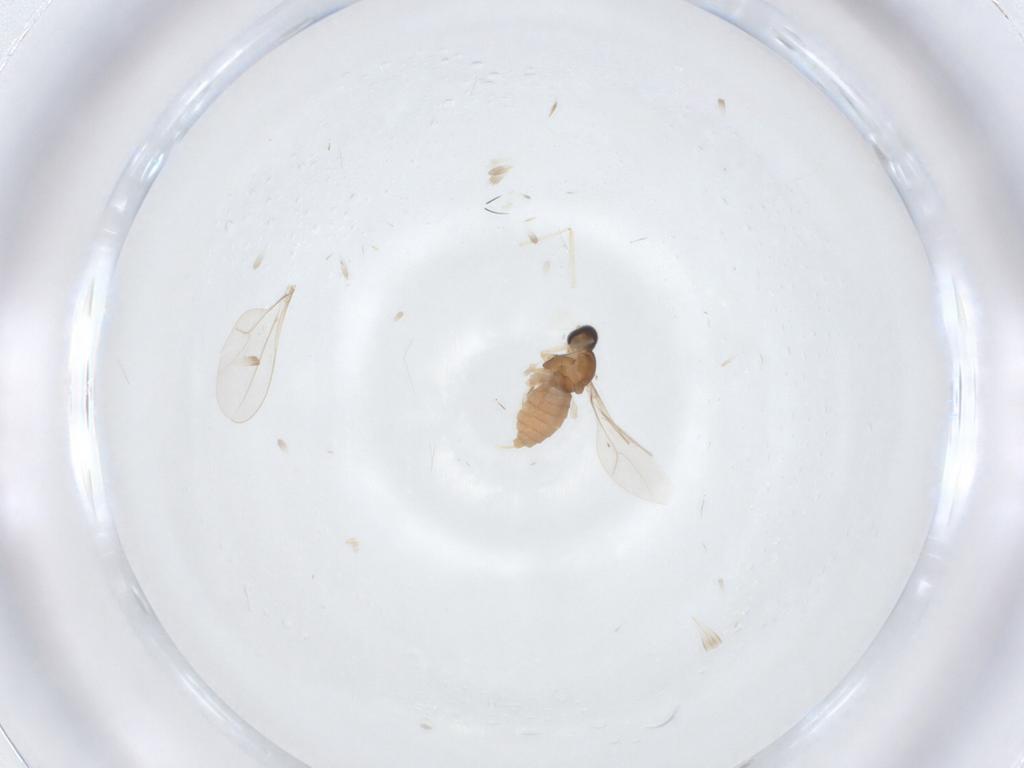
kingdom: Animalia
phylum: Arthropoda
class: Insecta
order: Diptera
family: Cecidomyiidae
